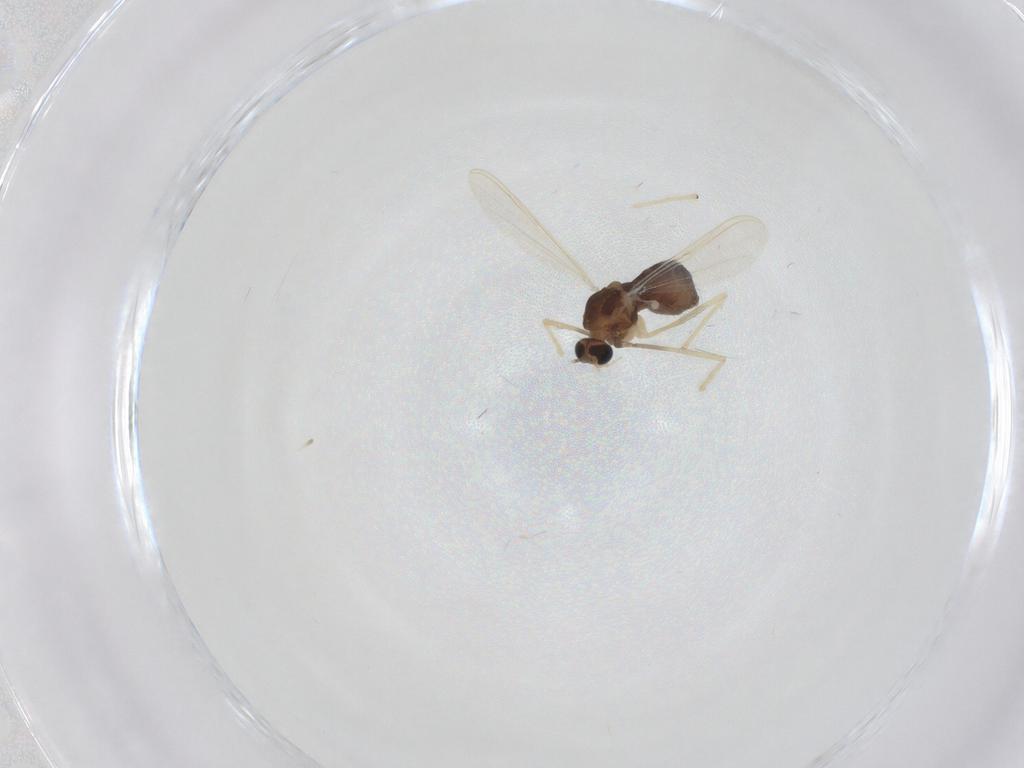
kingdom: Animalia
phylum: Arthropoda
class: Insecta
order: Diptera
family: Chironomidae
